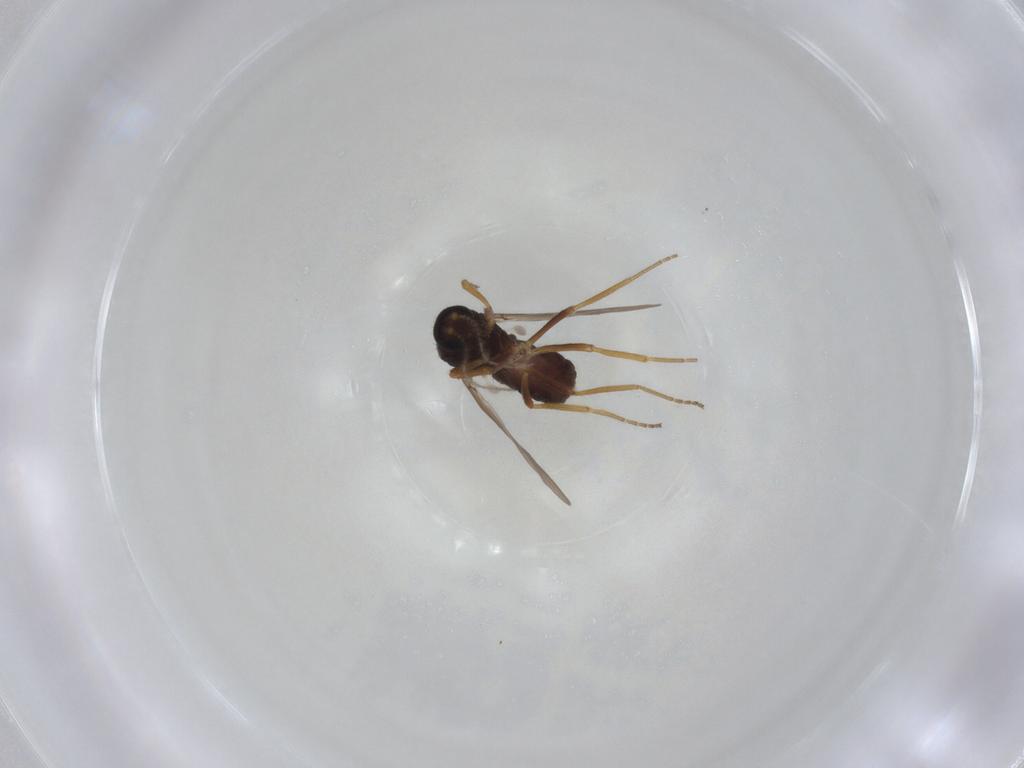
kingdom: Animalia
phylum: Arthropoda
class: Insecta
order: Diptera
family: Ceratopogonidae
